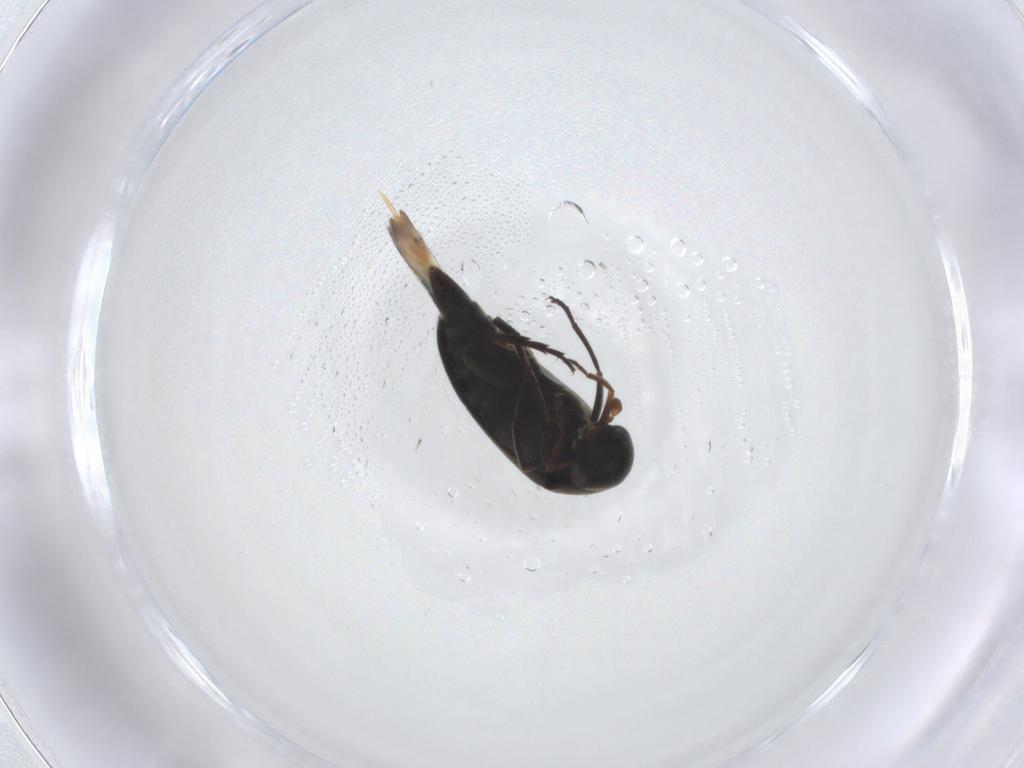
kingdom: Animalia
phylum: Arthropoda
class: Insecta
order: Coleoptera
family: Mordellidae
